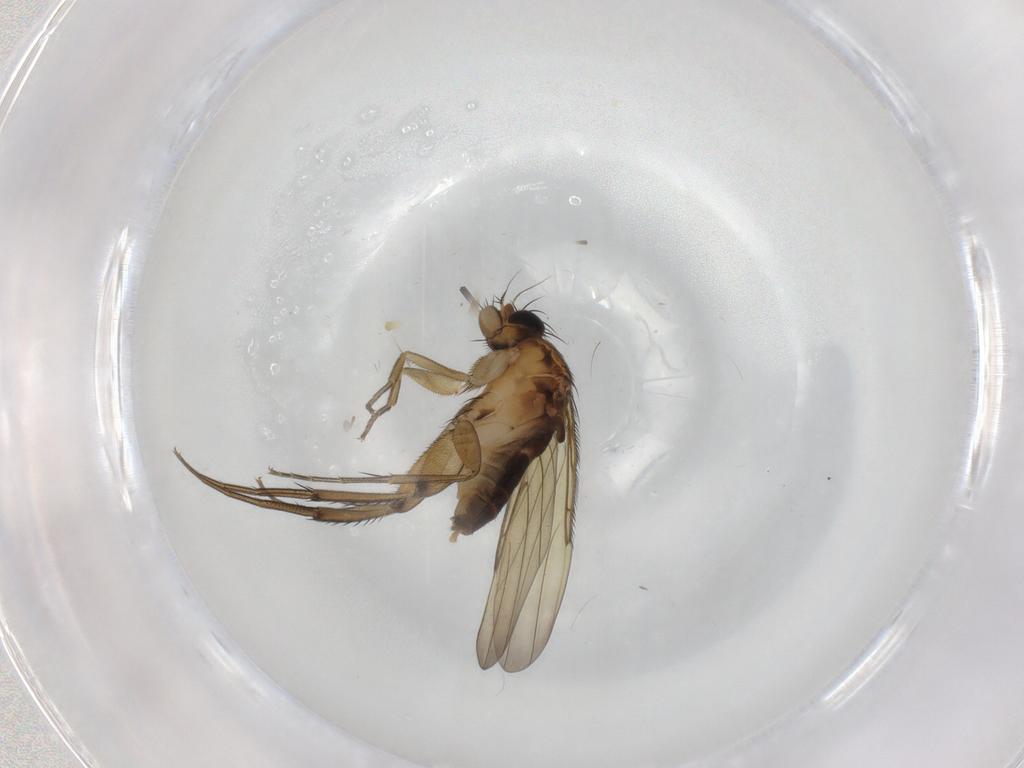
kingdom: Animalia
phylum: Arthropoda
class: Insecta
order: Diptera
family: Phoridae
